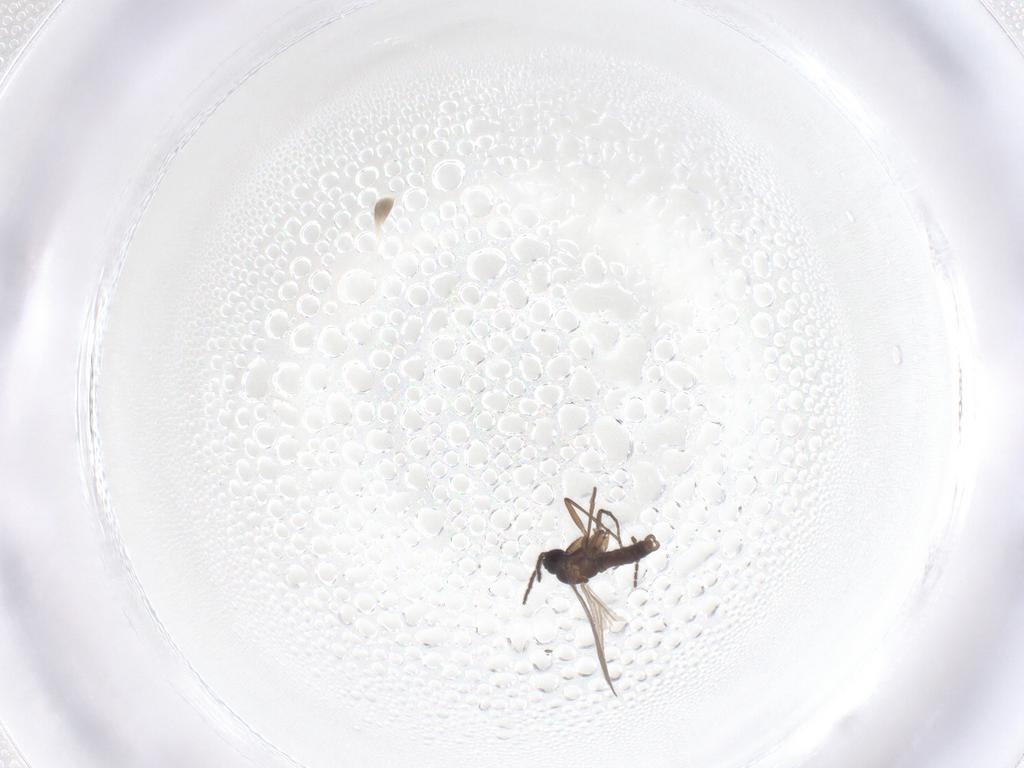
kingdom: Animalia
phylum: Arthropoda
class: Insecta
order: Diptera
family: Sciaridae
